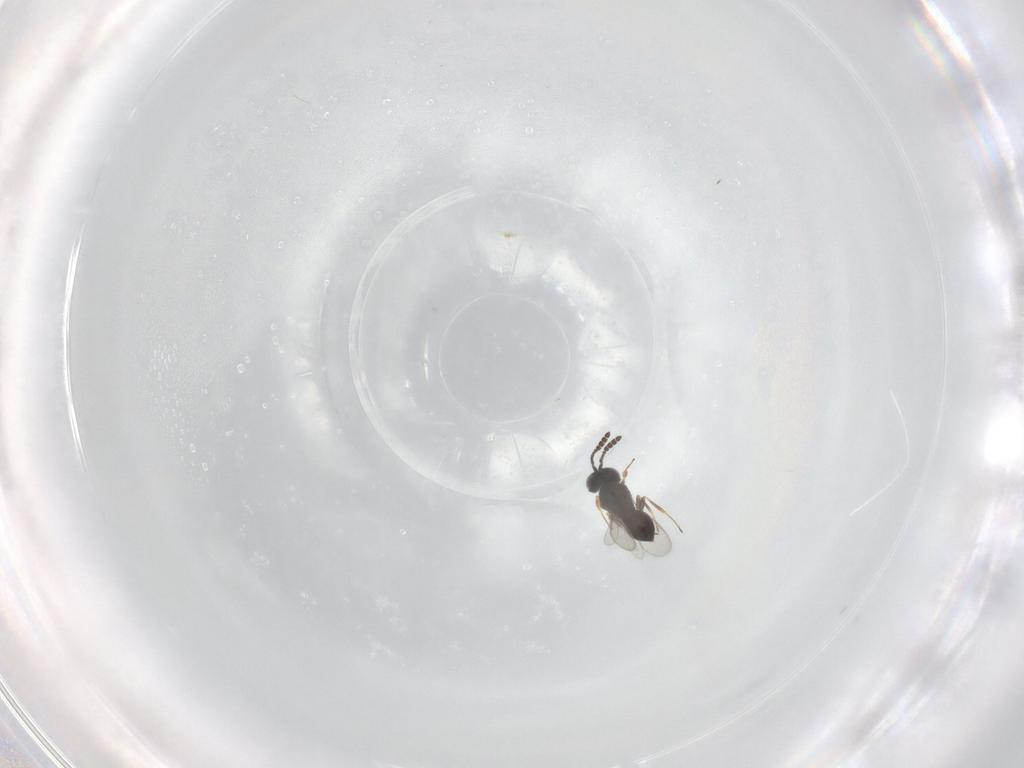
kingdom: Animalia
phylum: Arthropoda
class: Insecta
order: Hymenoptera
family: Scelionidae
